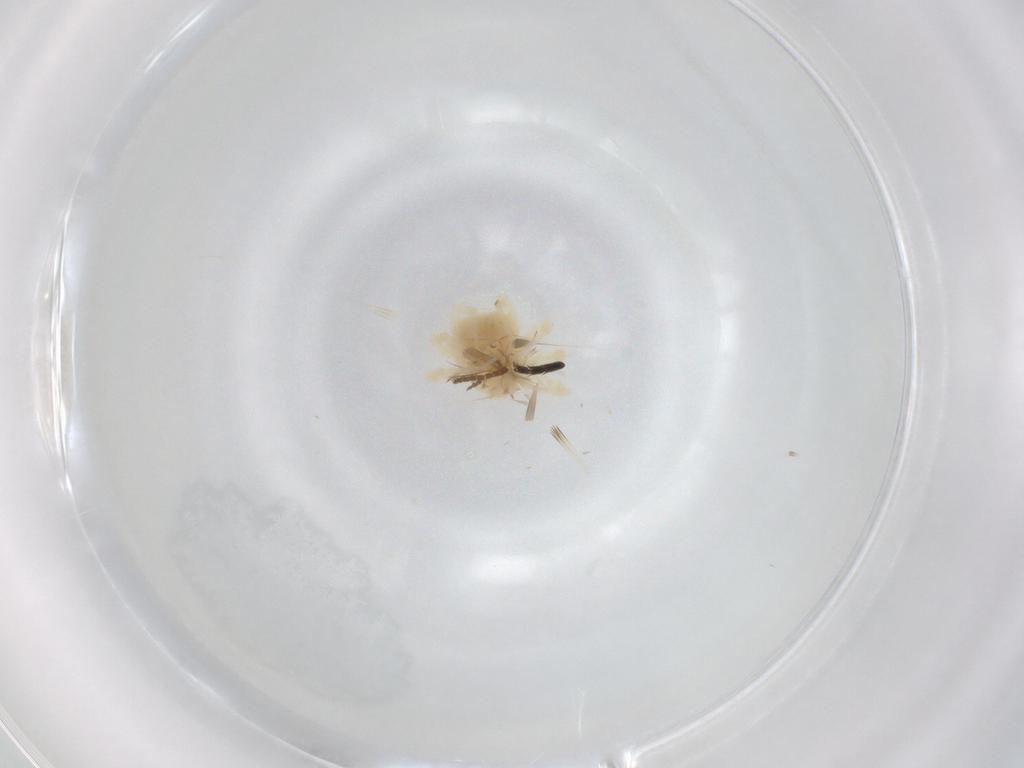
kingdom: Animalia
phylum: Arthropoda
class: Arachnida
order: Trombidiformes
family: Anystidae
